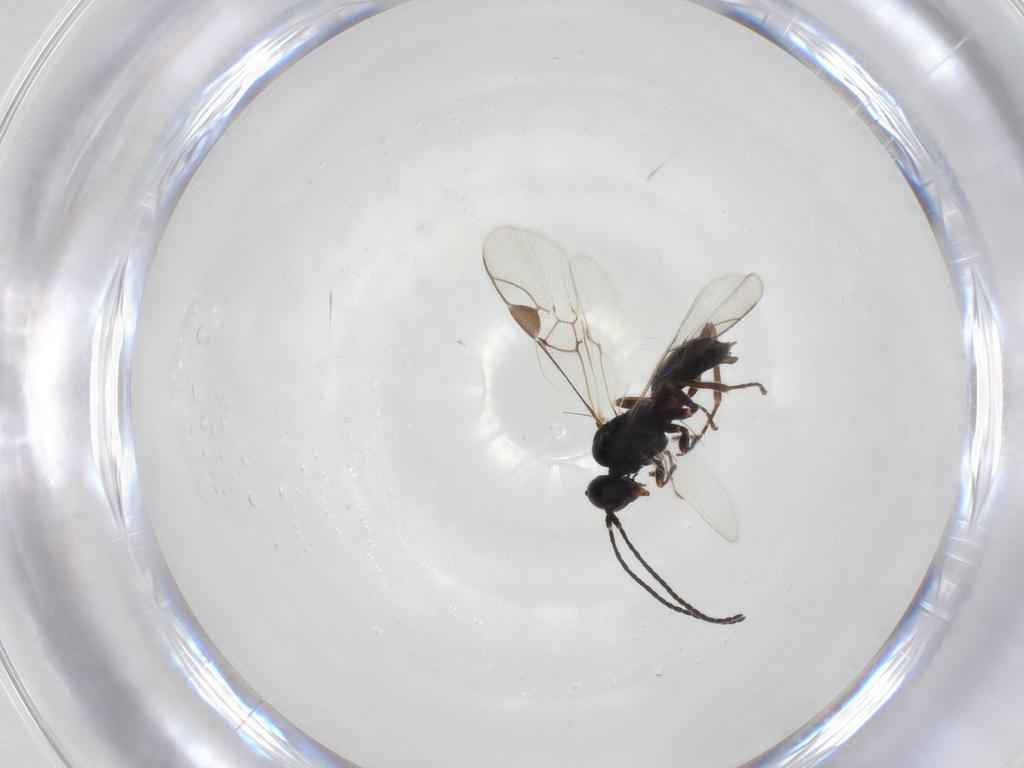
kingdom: Animalia
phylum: Arthropoda
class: Insecta
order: Hymenoptera
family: Braconidae
